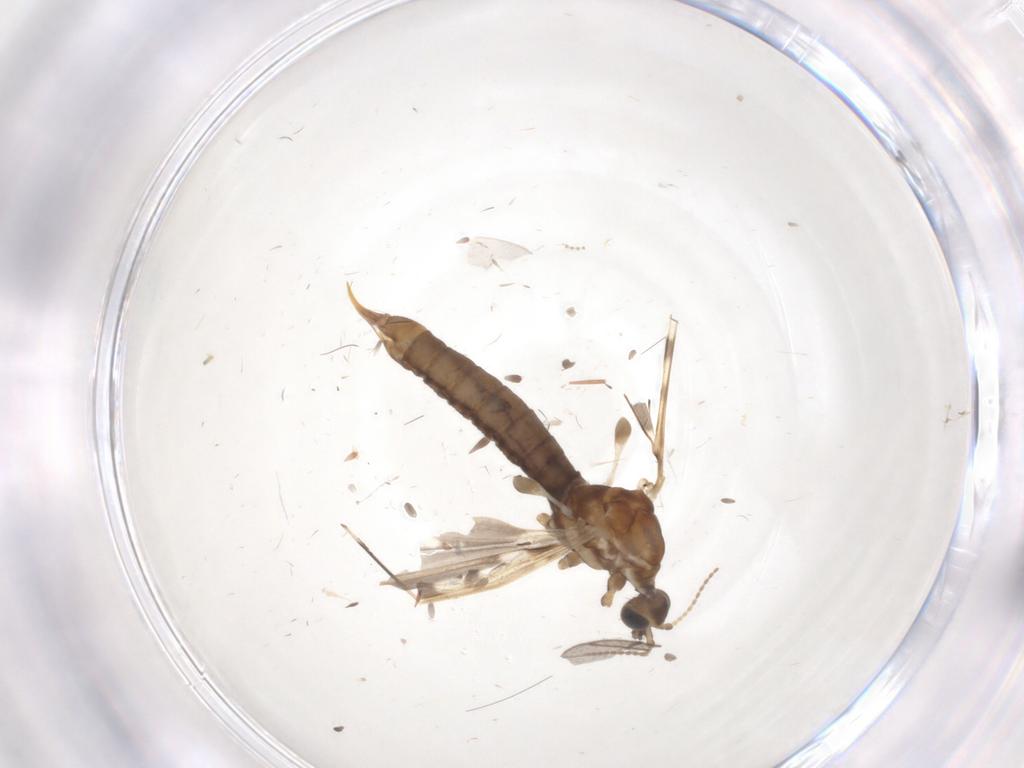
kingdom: Animalia
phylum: Arthropoda
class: Insecta
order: Diptera
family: Limoniidae
